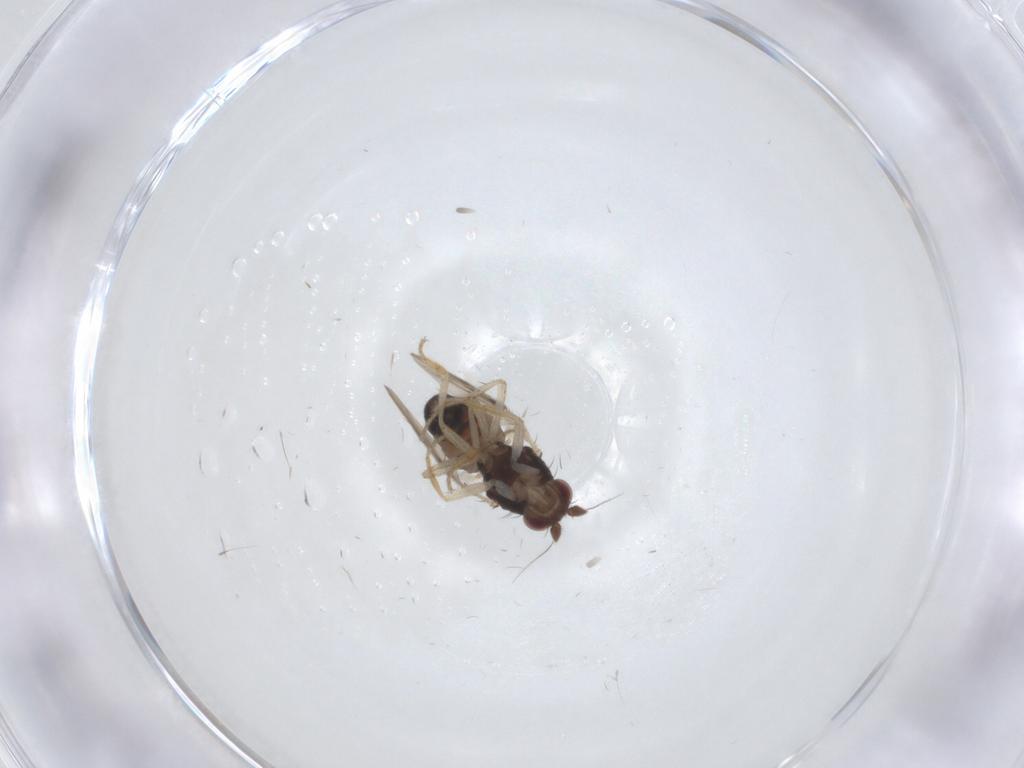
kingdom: Animalia
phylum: Arthropoda
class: Insecta
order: Diptera
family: Sphaeroceridae
